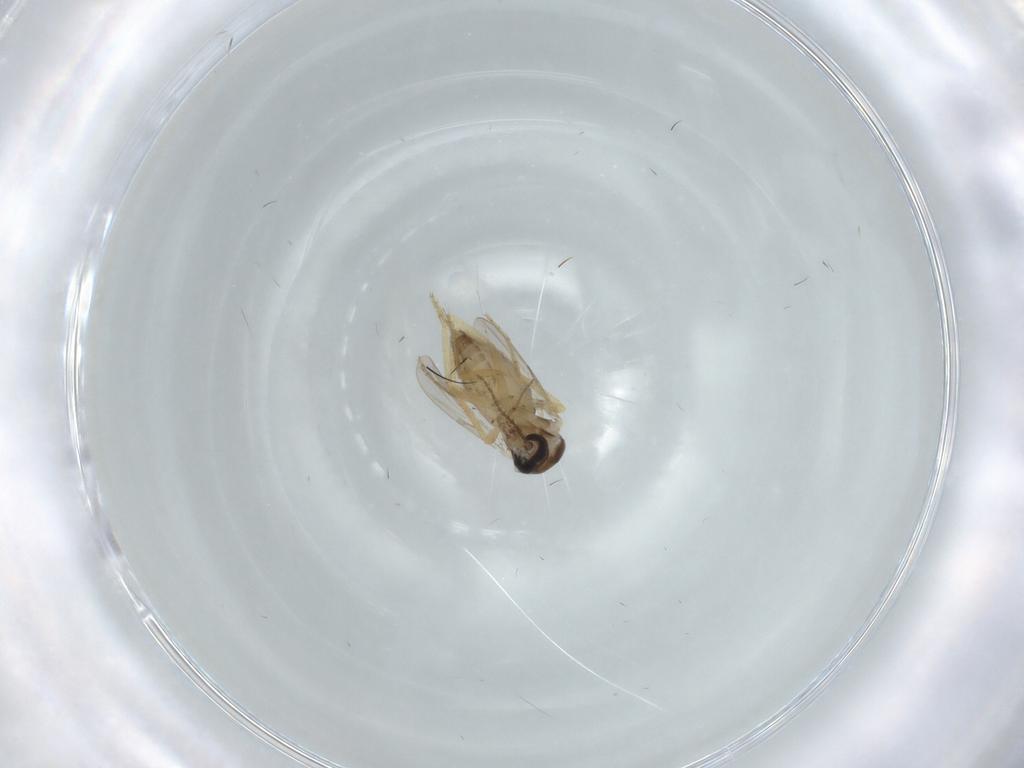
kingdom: Animalia
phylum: Arthropoda
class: Insecta
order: Diptera
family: Ceratopogonidae
